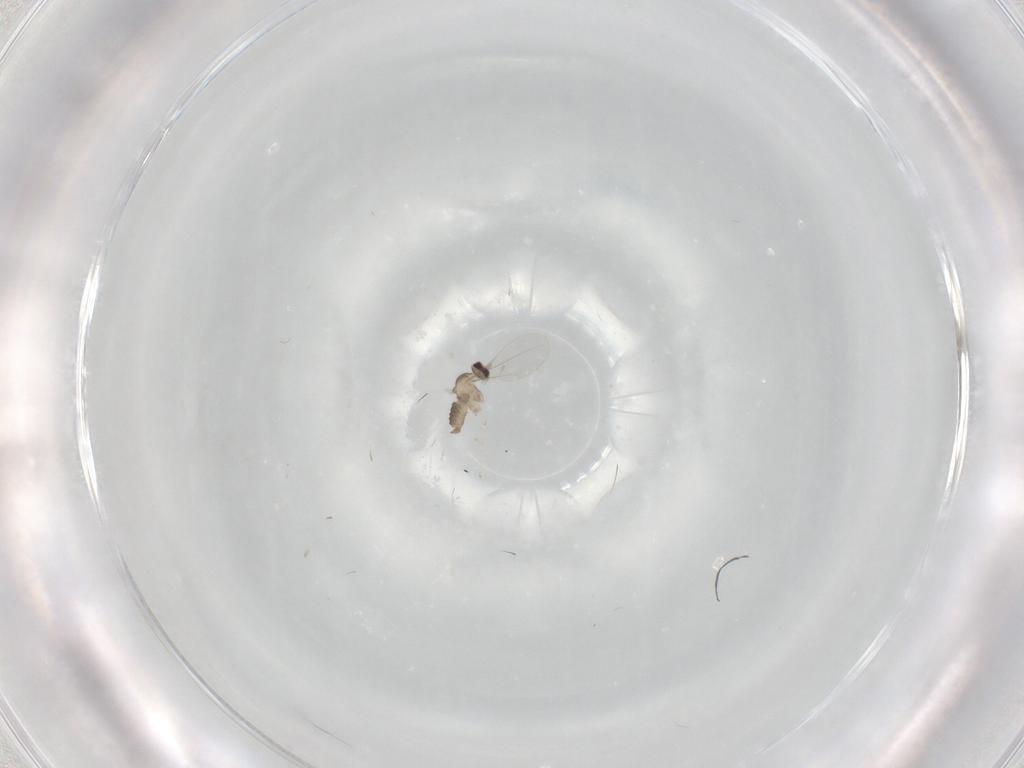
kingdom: Animalia
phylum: Arthropoda
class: Insecta
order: Diptera
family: Cecidomyiidae
